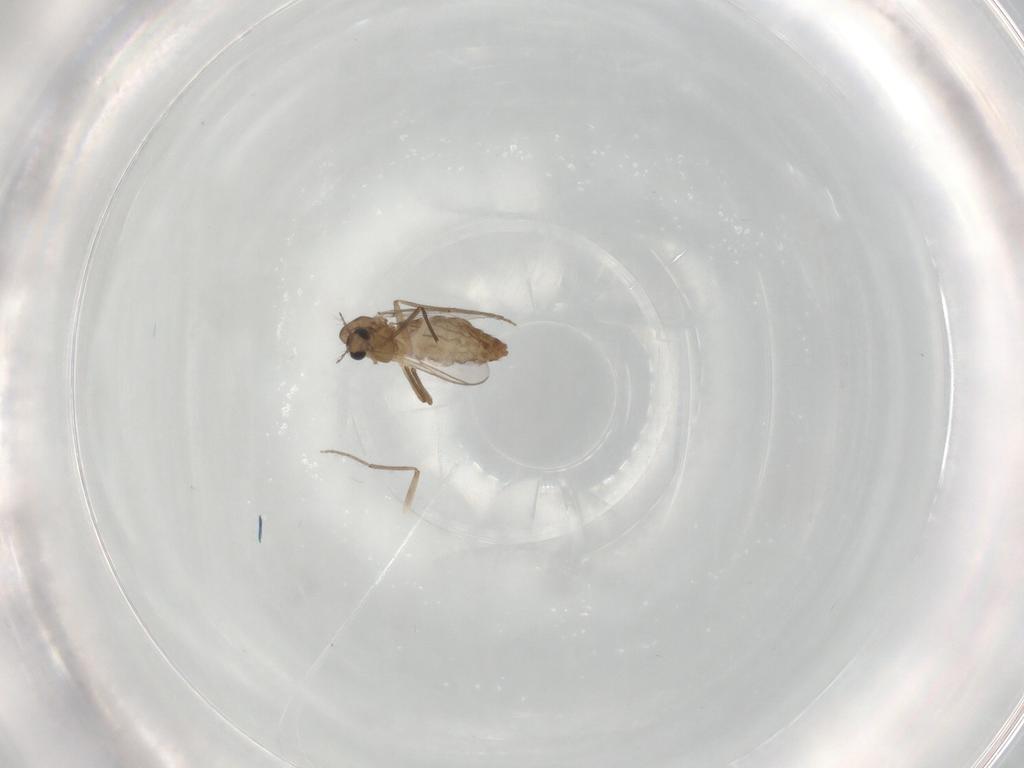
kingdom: Animalia
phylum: Arthropoda
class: Insecta
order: Diptera
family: Chironomidae
